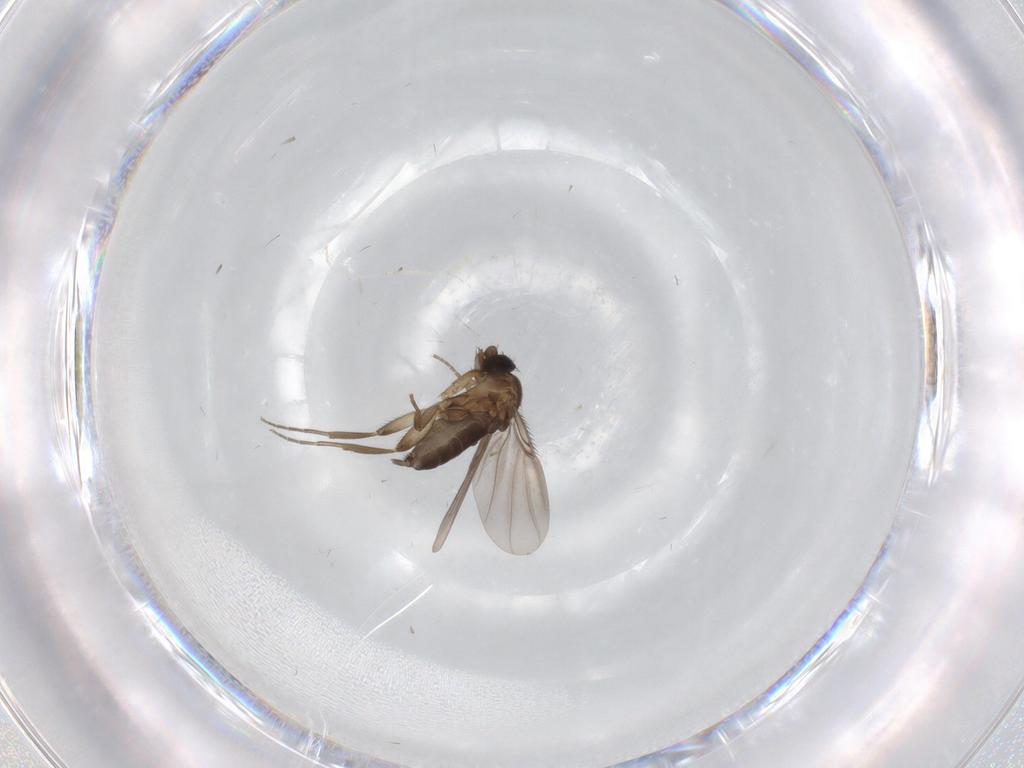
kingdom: Animalia
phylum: Arthropoda
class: Insecta
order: Diptera
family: Phoridae
